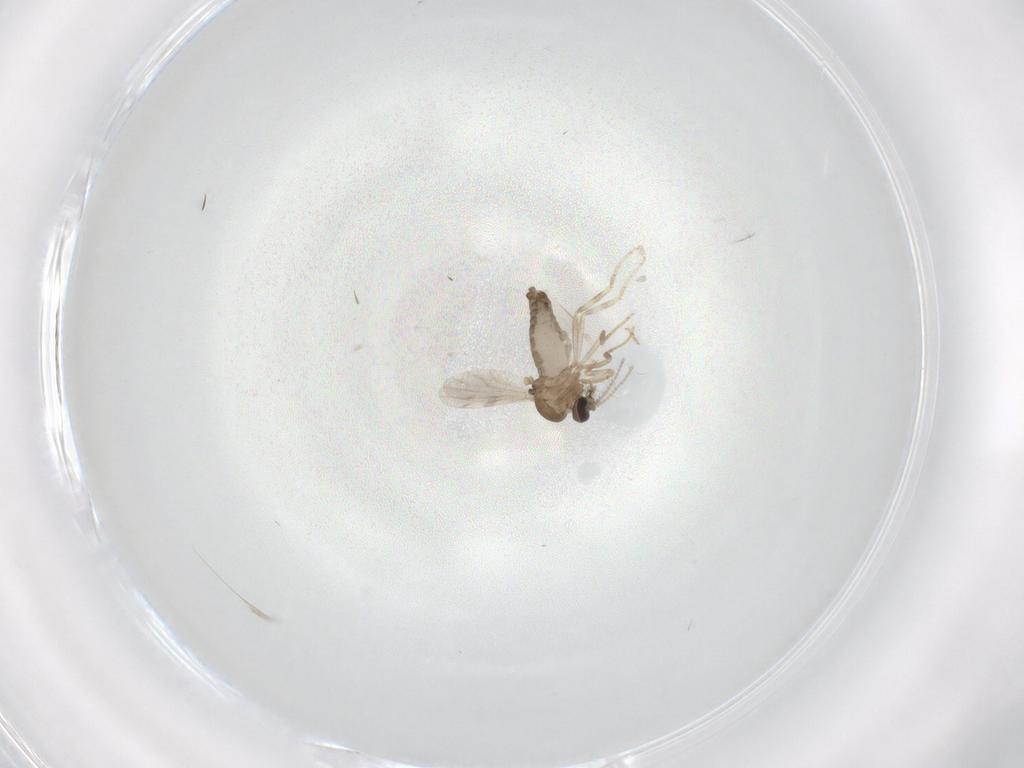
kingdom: Animalia
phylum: Arthropoda
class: Insecta
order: Diptera
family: Ceratopogonidae
